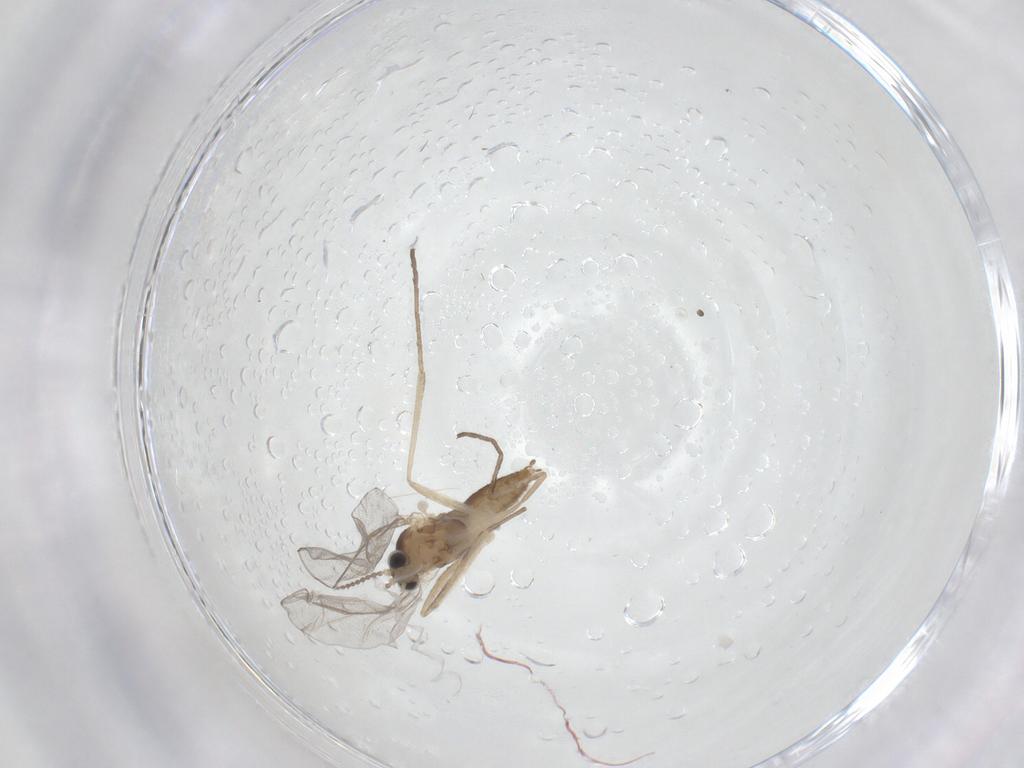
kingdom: Animalia
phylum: Arthropoda
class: Insecta
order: Diptera
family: Cecidomyiidae
